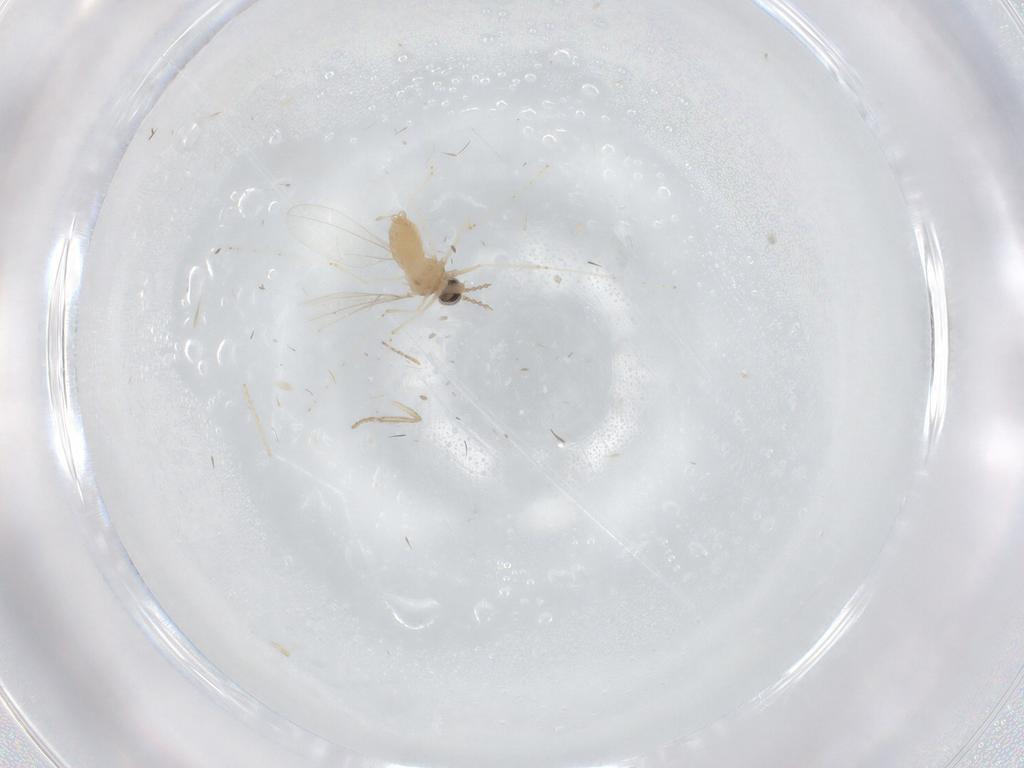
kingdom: Animalia
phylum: Arthropoda
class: Insecta
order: Diptera
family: Cecidomyiidae
